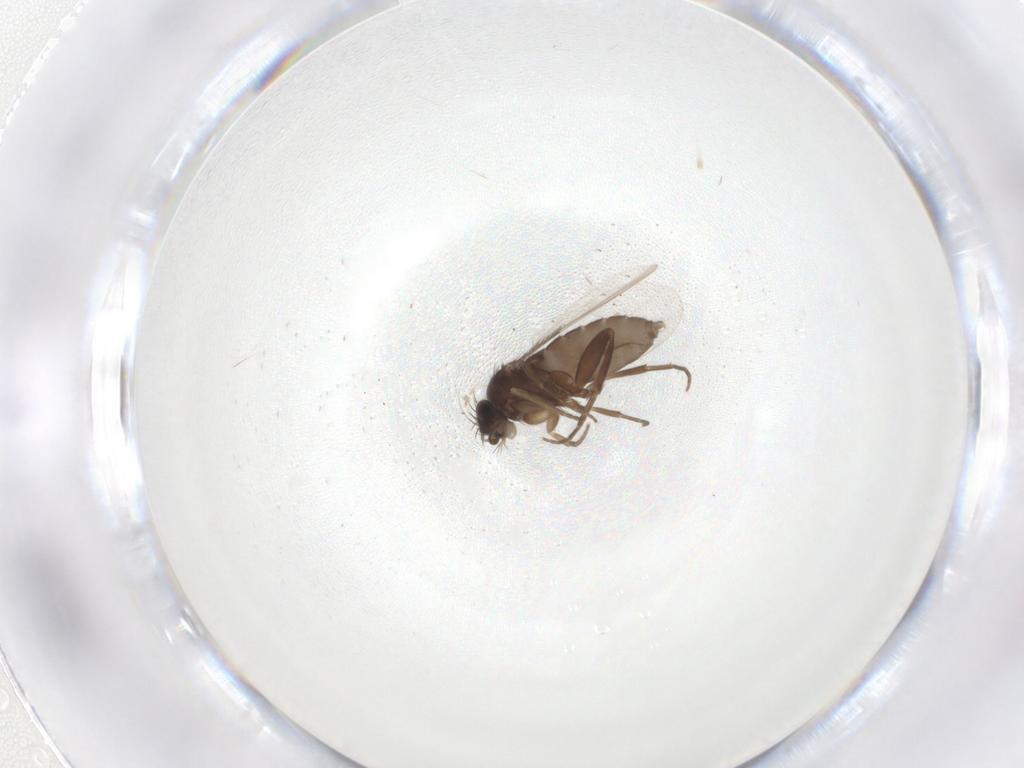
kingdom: Animalia
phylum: Arthropoda
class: Insecta
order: Diptera
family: Phoridae
